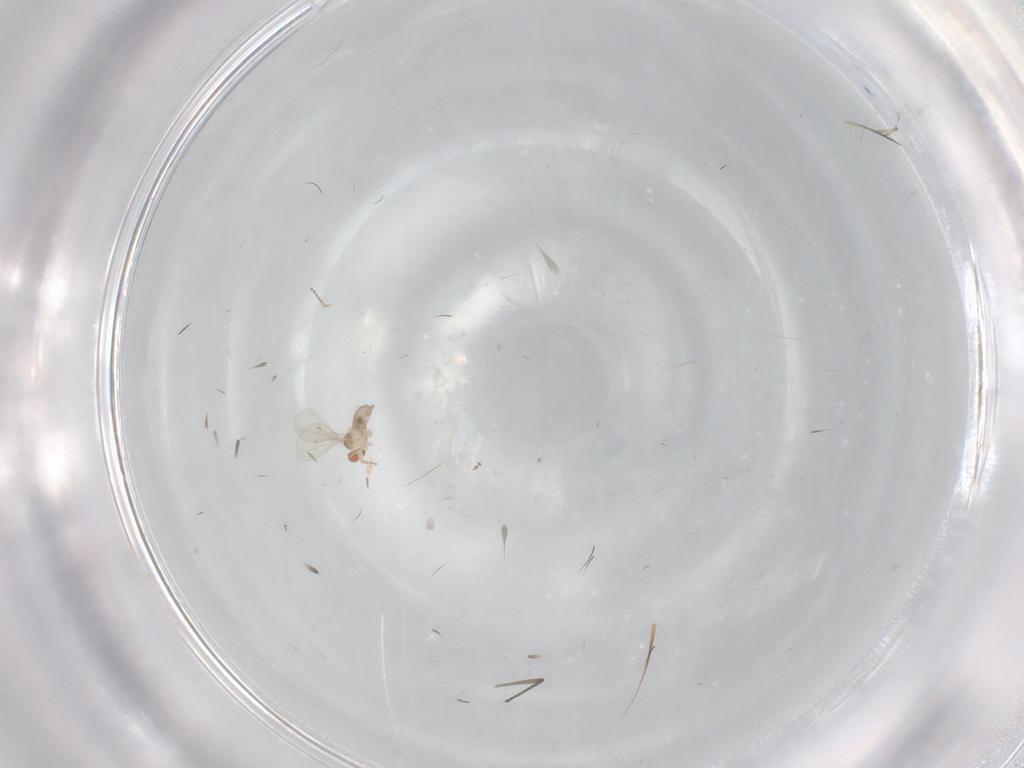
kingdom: Animalia
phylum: Arthropoda
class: Insecta
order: Diptera
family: Chironomidae
